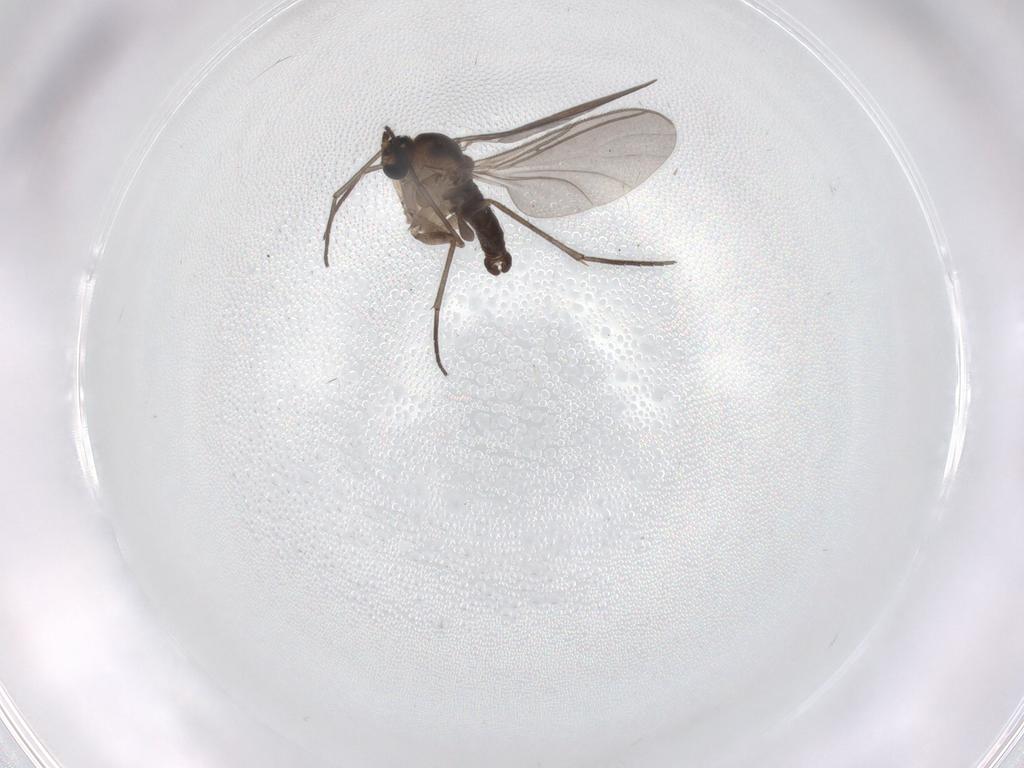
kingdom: Animalia
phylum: Arthropoda
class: Insecta
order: Diptera
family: Sciaridae
